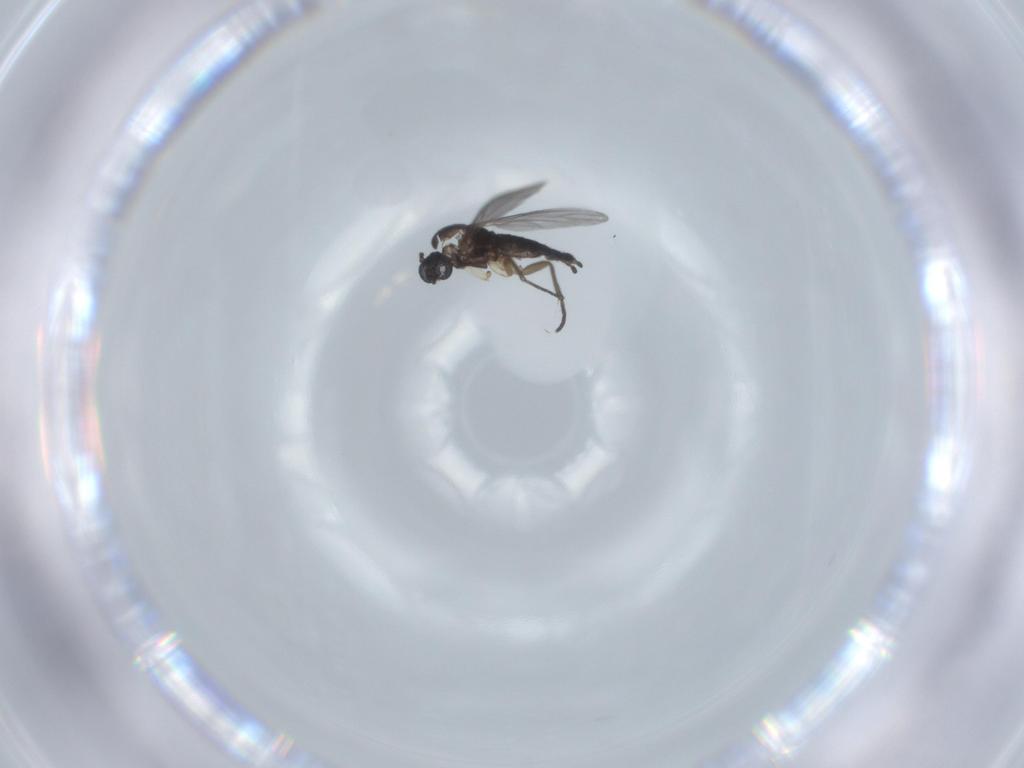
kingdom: Animalia
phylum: Arthropoda
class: Insecta
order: Diptera
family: Sciaridae
